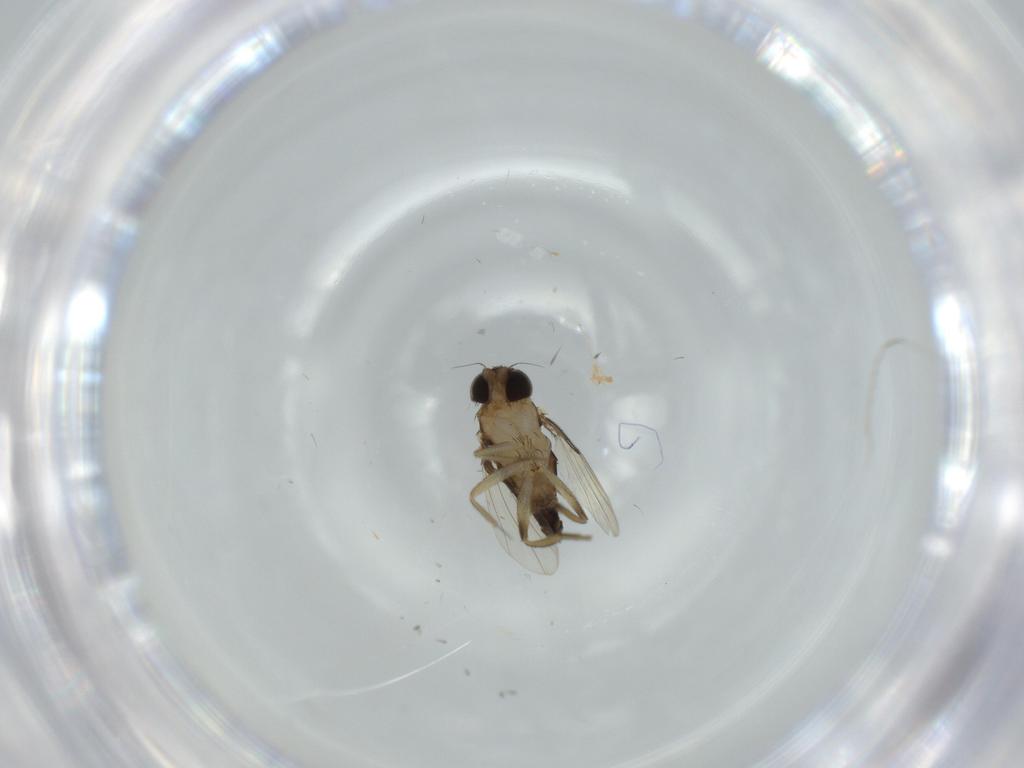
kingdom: Animalia
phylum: Arthropoda
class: Insecta
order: Diptera
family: Phoridae
